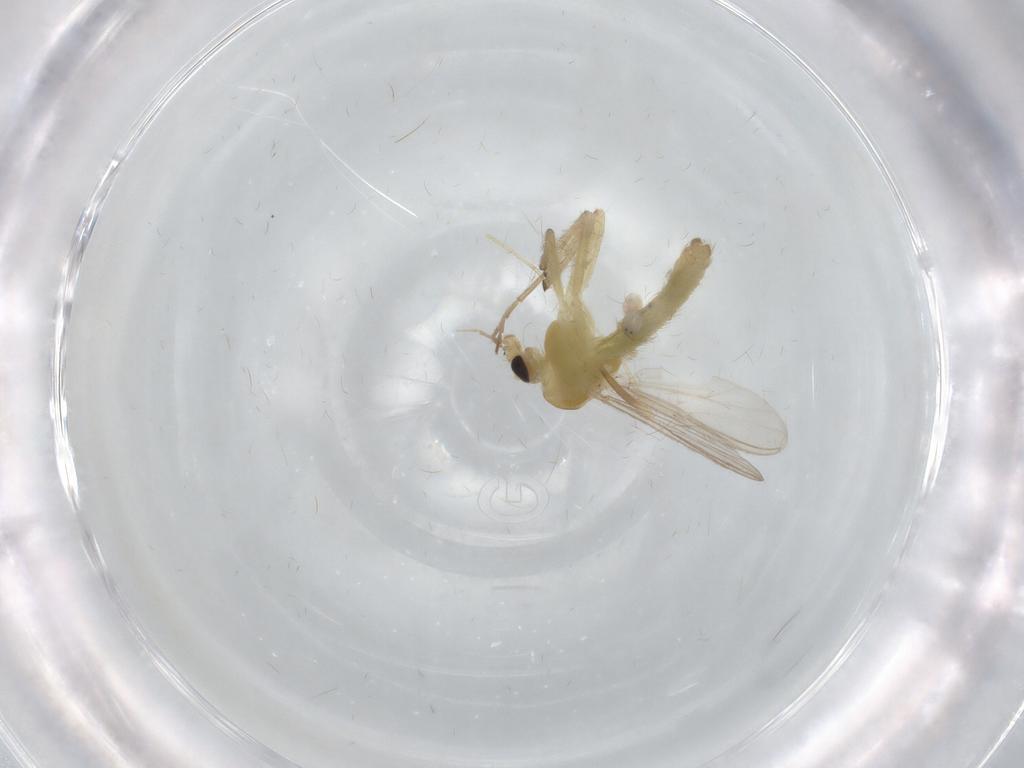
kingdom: Animalia
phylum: Arthropoda
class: Insecta
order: Diptera
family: Chironomidae
